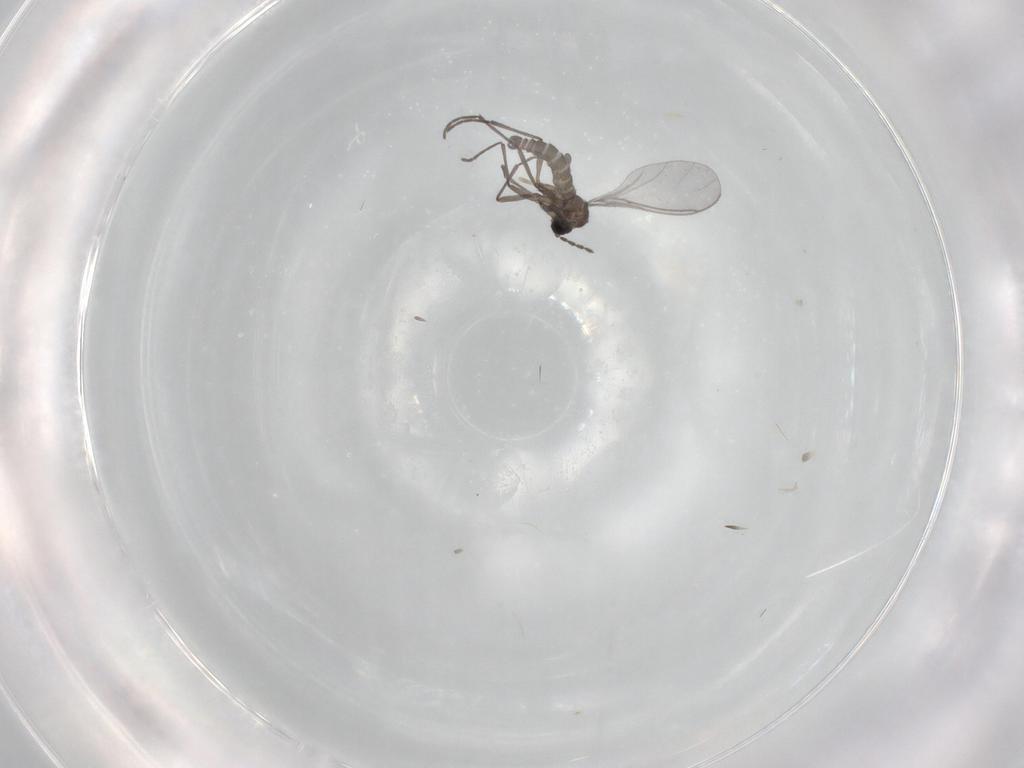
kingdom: Animalia
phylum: Arthropoda
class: Insecta
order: Diptera
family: Sciaridae
